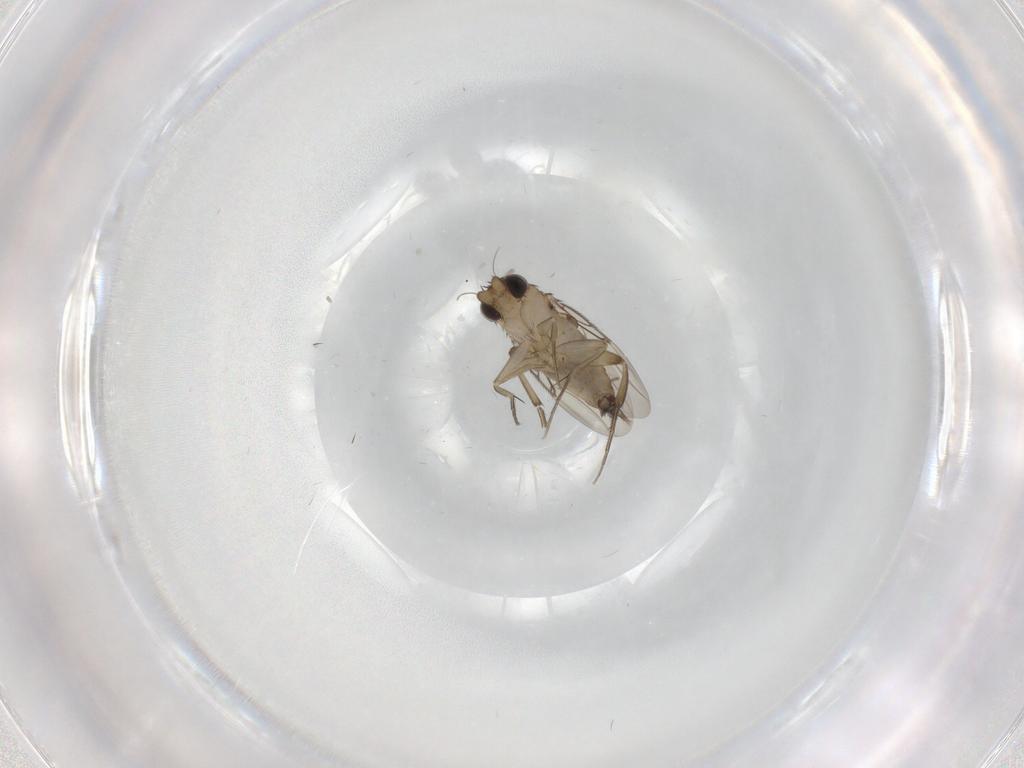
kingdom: Animalia
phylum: Arthropoda
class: Insecta
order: Diptera
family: Phoridae
